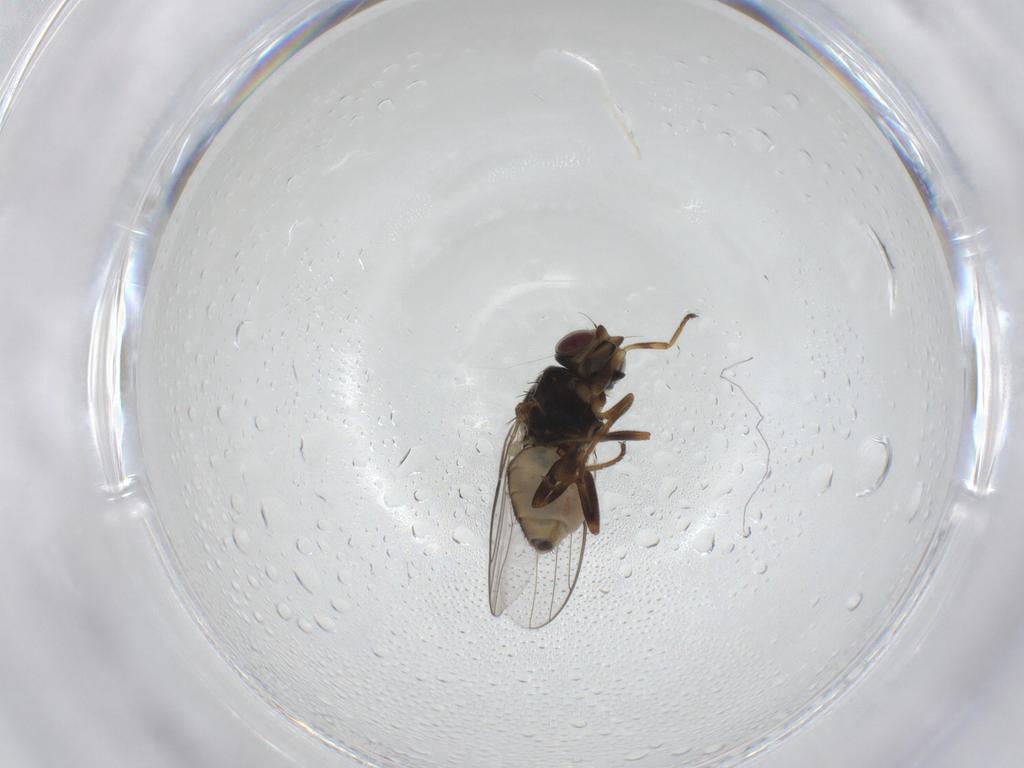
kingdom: Animalia
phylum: Arthropoda
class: Insecta
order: Diptera
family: Chloropidae
